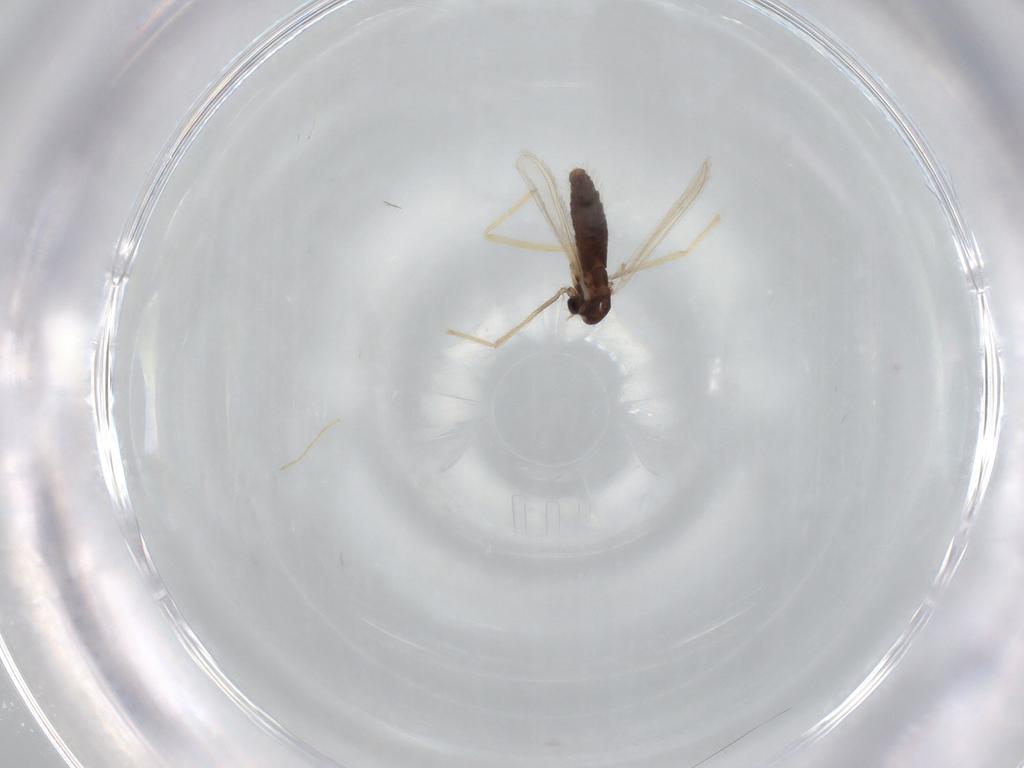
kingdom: Animalia
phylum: Arthropoda
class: Insecta
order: Diptera
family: Chironomidae
